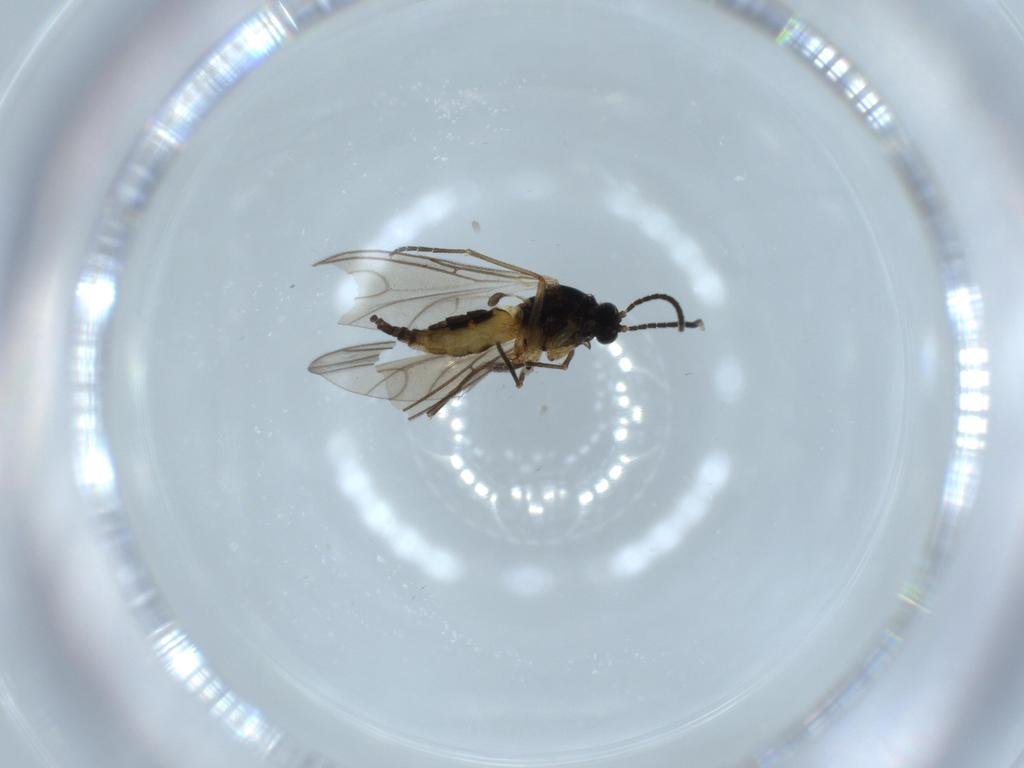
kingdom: Animalia
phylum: Arthropoda
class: Insecta
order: Diptera
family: Sciaridae
